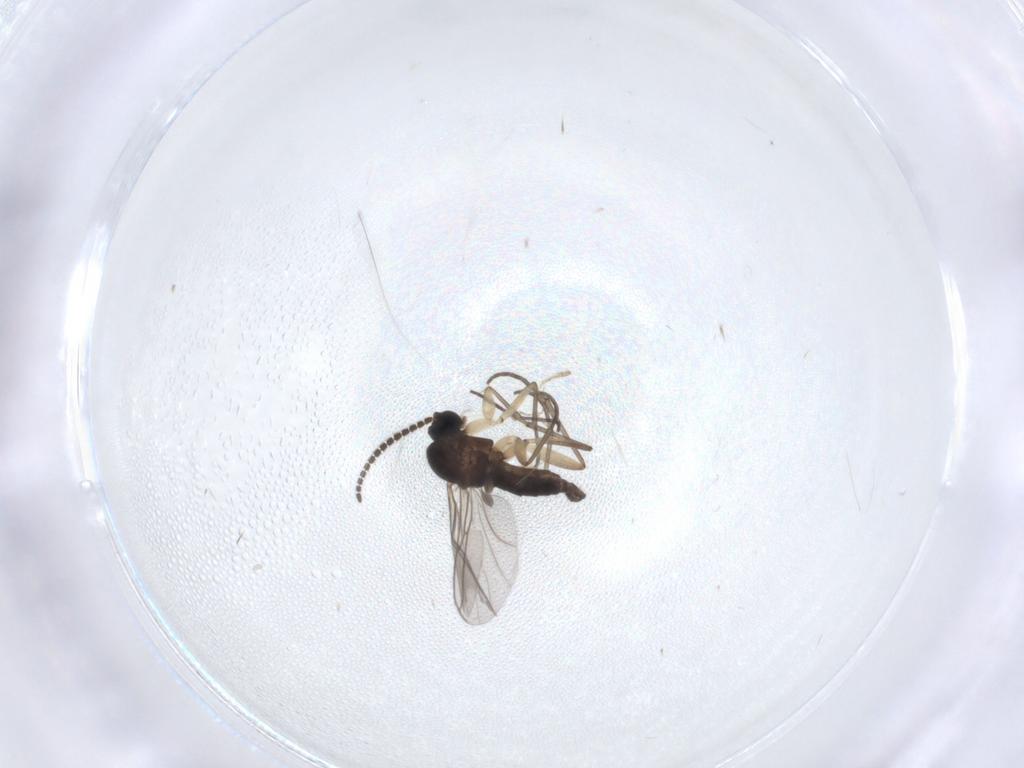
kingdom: Animalia
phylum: Arthropoda
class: Insecta
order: Diptera
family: Sciaridae
